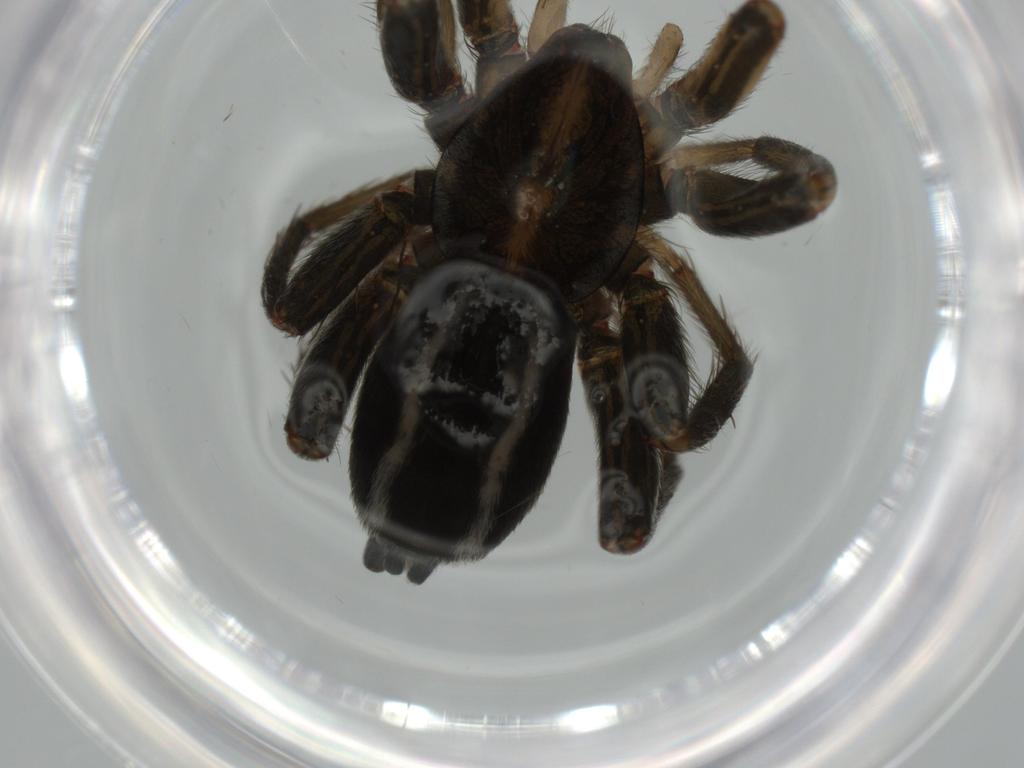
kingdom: Animalia
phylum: Arthropoda
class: Arachnida
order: Araneae
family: Gnaphosidae
